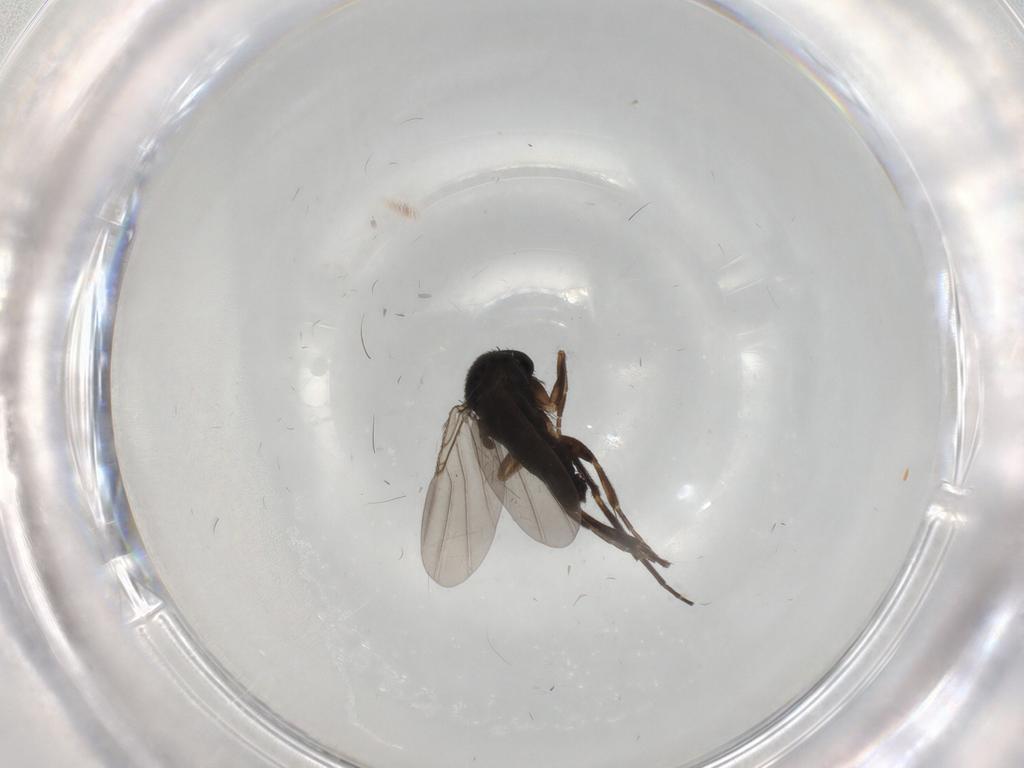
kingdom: Animalia
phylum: Arthropoda
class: Insecta
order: Diptera
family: Phoridae
